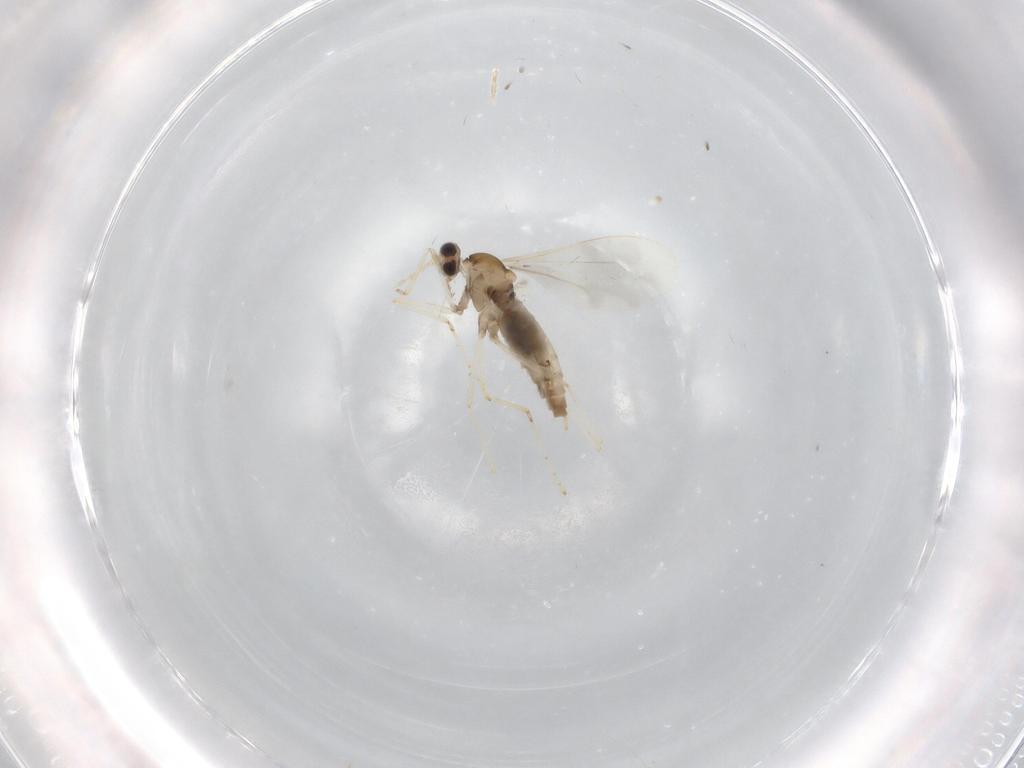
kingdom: Animalia
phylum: Arthropoda
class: Insecta
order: Diptera
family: Cecidomyiidae
